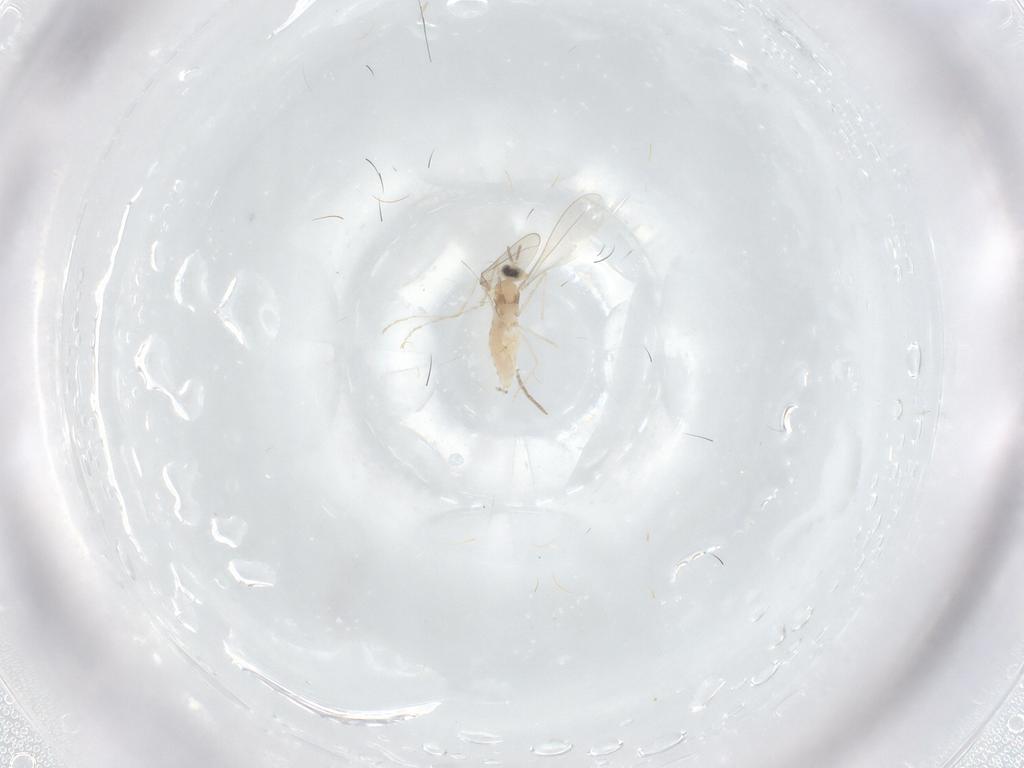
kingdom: Animalia
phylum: Arthropoda
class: Insecta
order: Diptera
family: Cecidomyiidae
